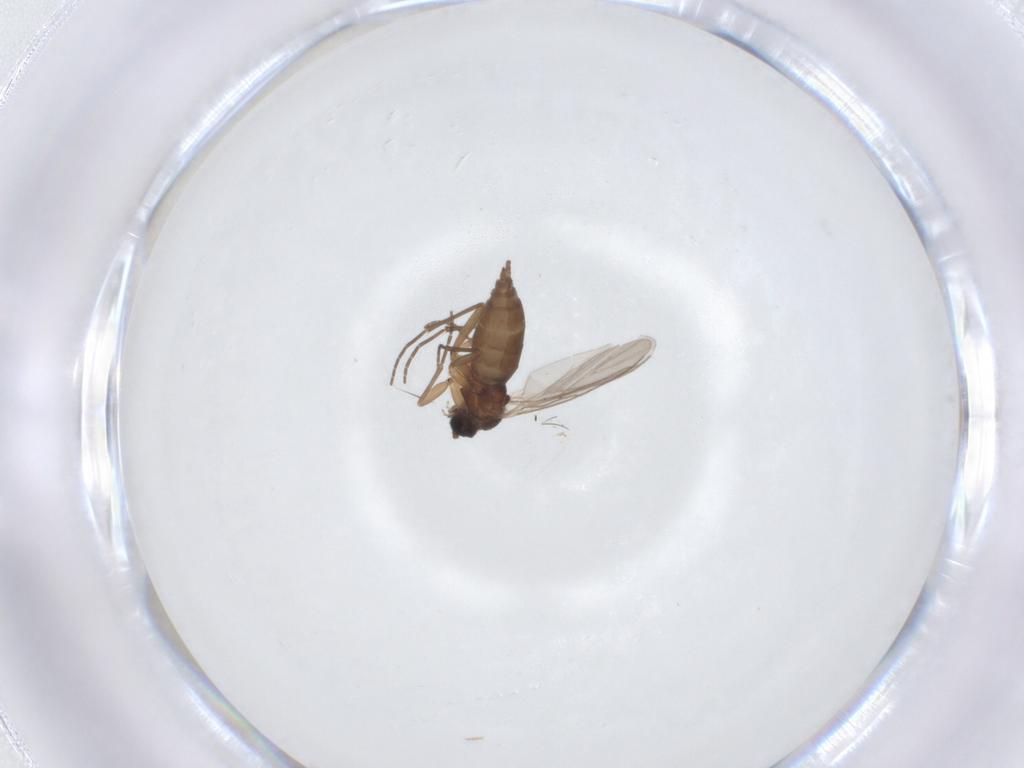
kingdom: Animalia
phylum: Arthropoda
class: Insecta
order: Diptera
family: Sciaridae
